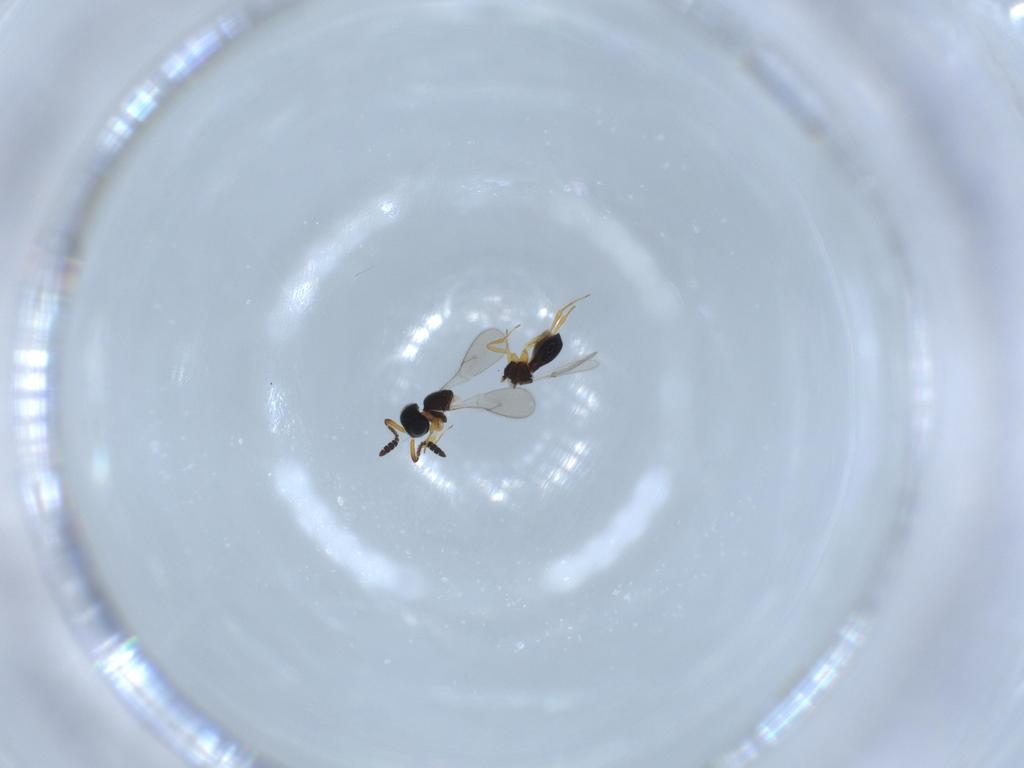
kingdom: Animalia
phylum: Arthropoda
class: Insecta
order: Hymenoptera
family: Scelionidae
